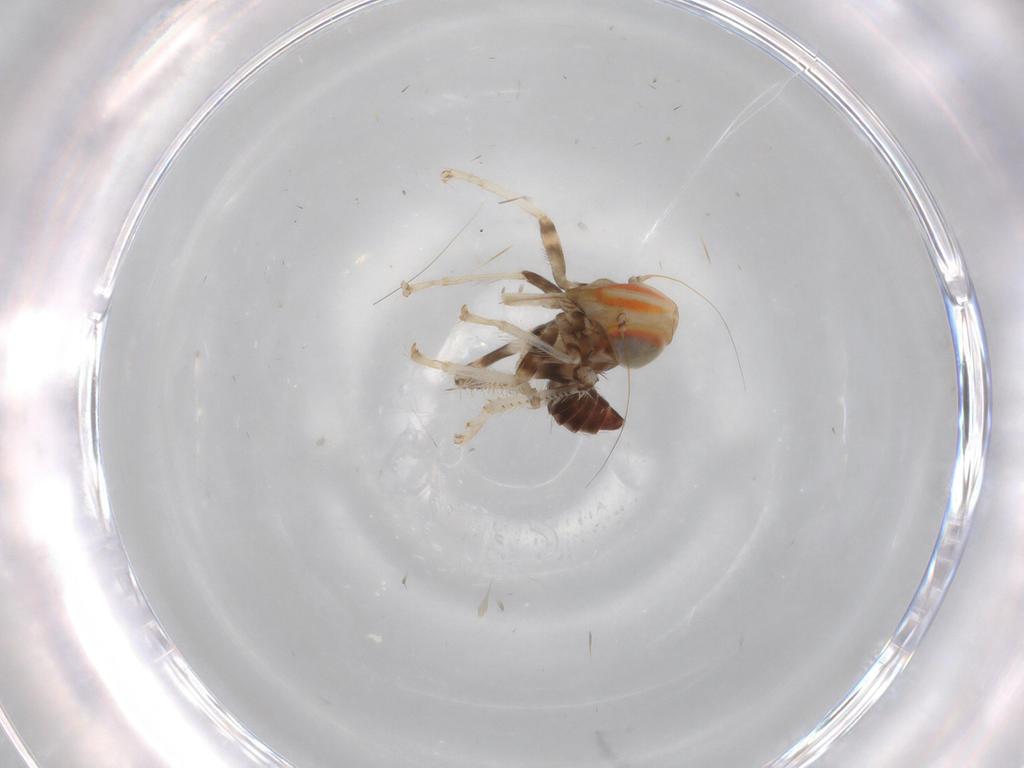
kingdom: Animalia
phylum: Arthropoda
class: Insecta
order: Hemiptera
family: Cicadellidae
